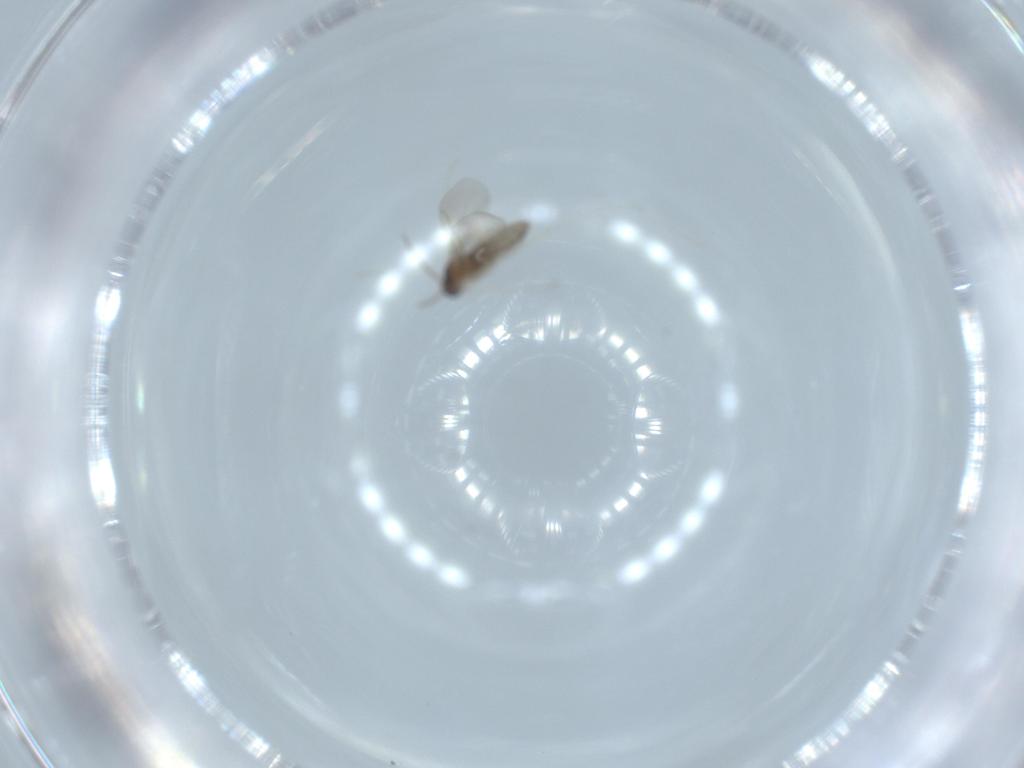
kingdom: Animalia
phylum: Arthropoda
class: Insecta
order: Diptera
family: Cecidomyiidae
